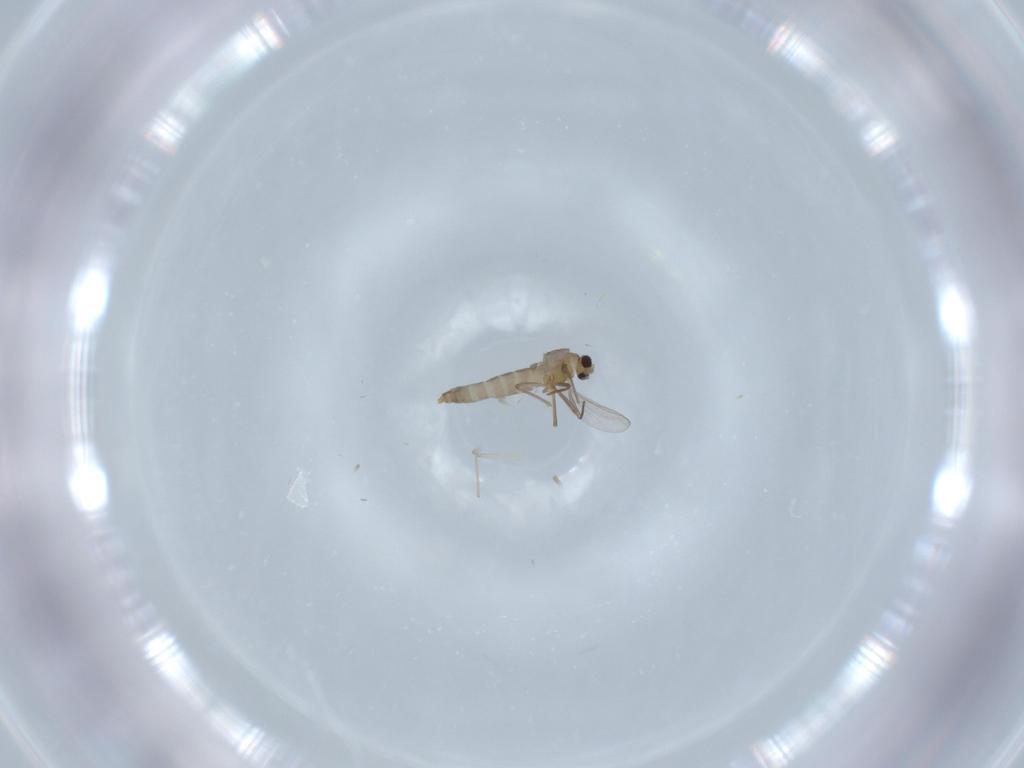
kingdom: Animalia
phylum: Arthropoda
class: Insecta
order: Diptera
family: Chironomidae
